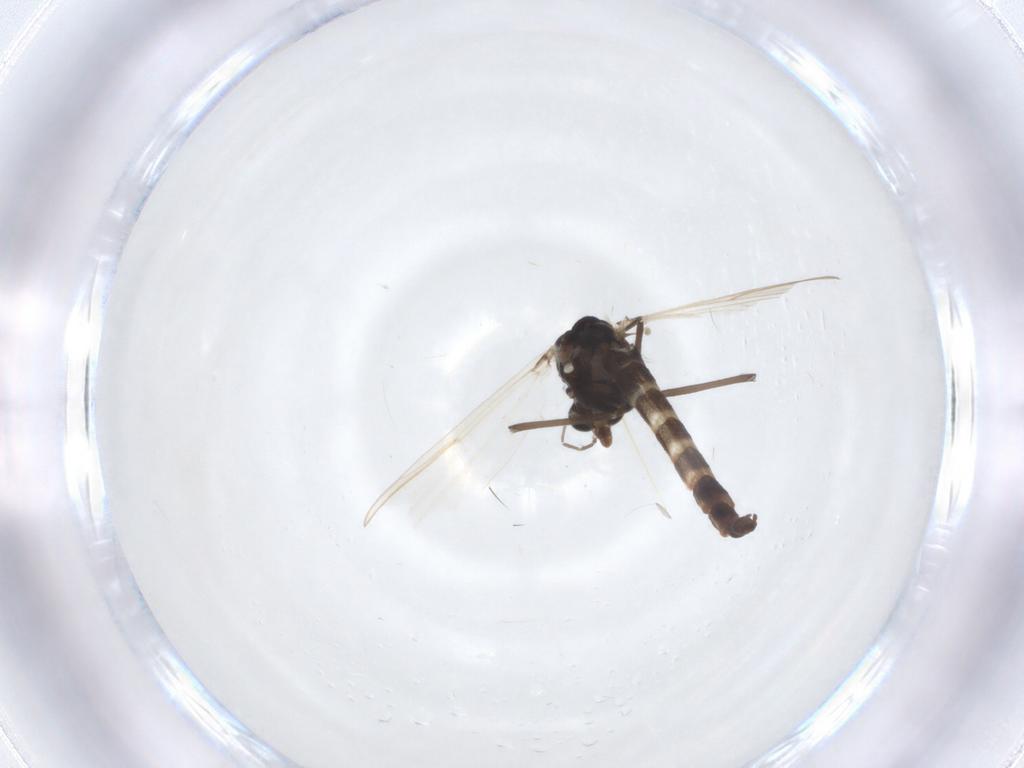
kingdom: Animalia
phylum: Arthropoda
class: Insecta
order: Diptera
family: Chironomidae
